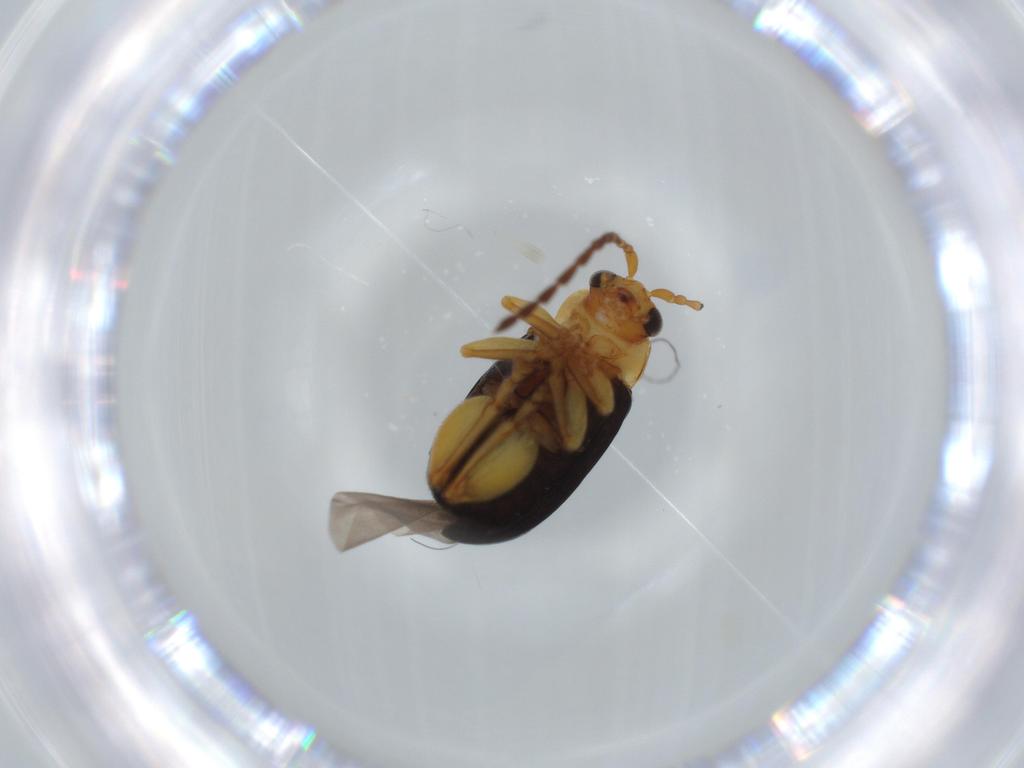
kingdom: Animalia
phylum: Arthropoda
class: Insecta
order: Coleoptera
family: Chrysomelidae
